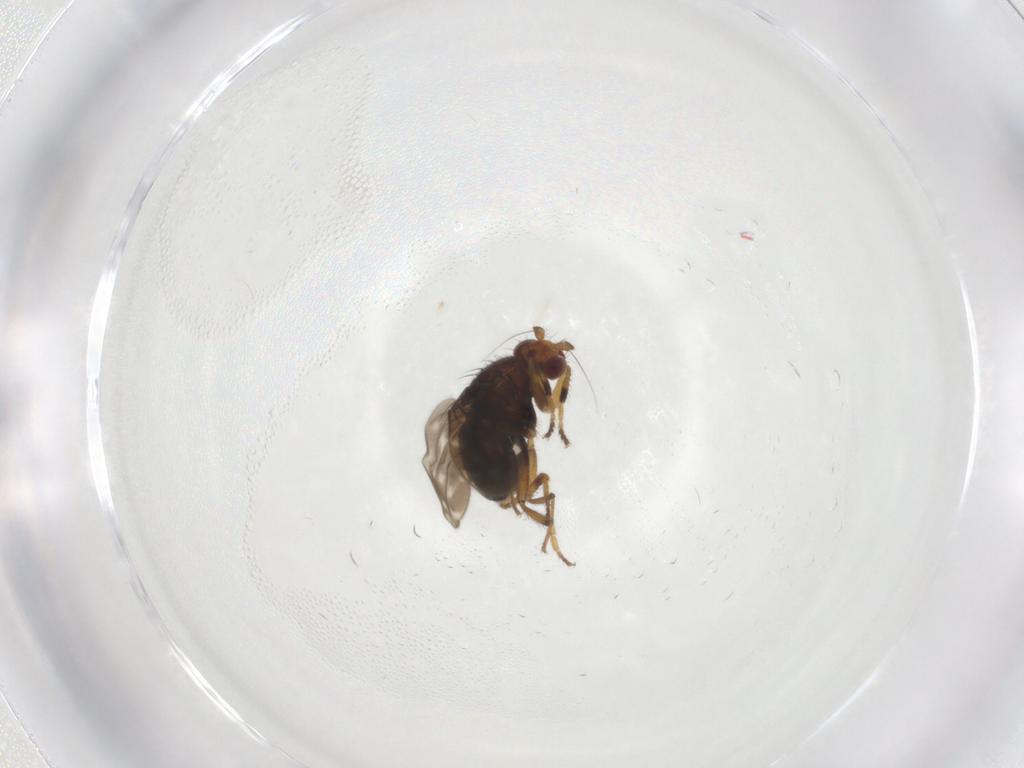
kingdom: Animalia
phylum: Arthropoda
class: Insecta
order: Diptera
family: Sphaeroceridae
